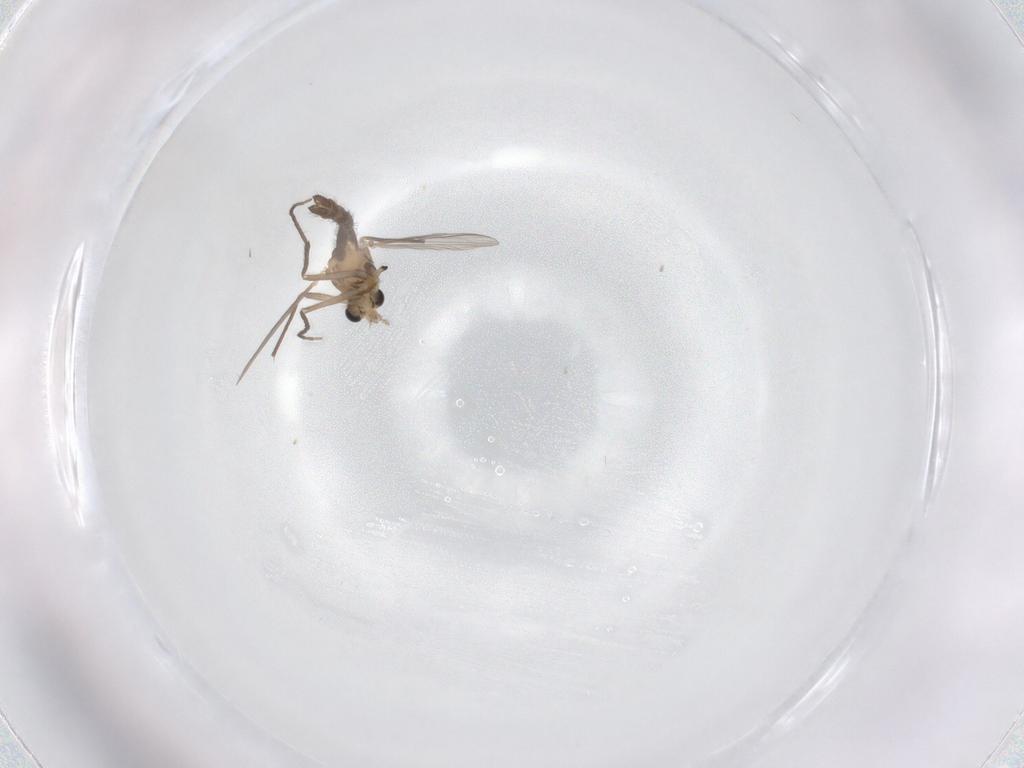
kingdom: Animalia
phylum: Arthropoda
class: Insecta
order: Diptera
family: Chironomidae
